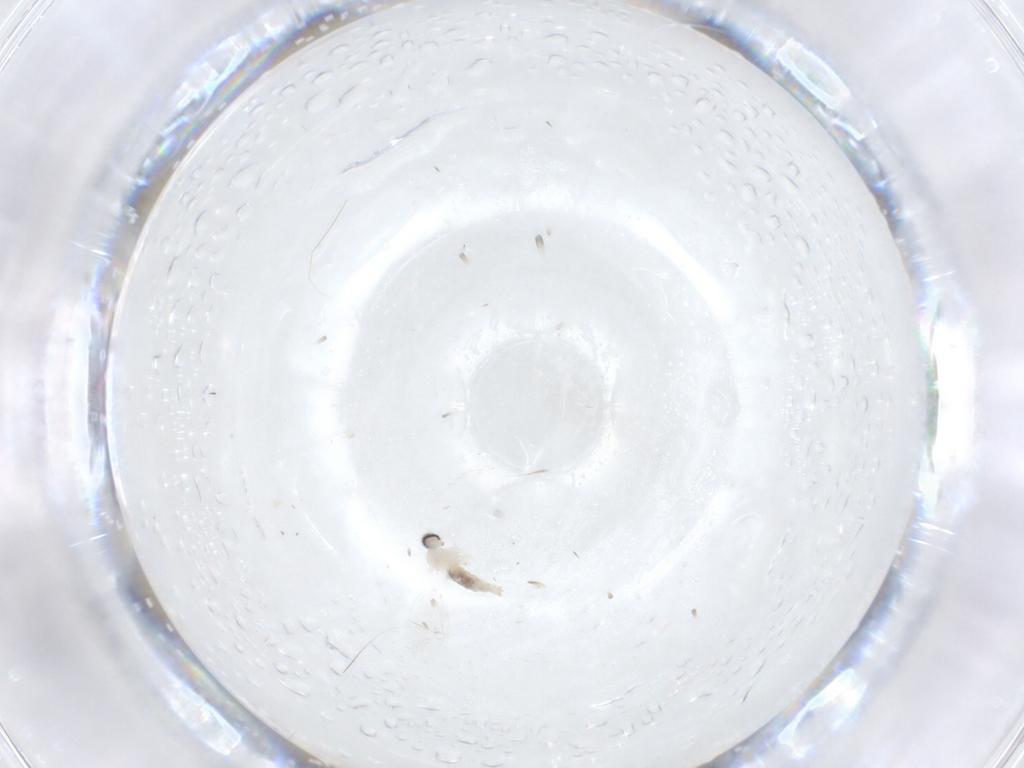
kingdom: Animalia
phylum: Arthropoda
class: Insecta
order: Diptera
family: Cecidomyiidae
